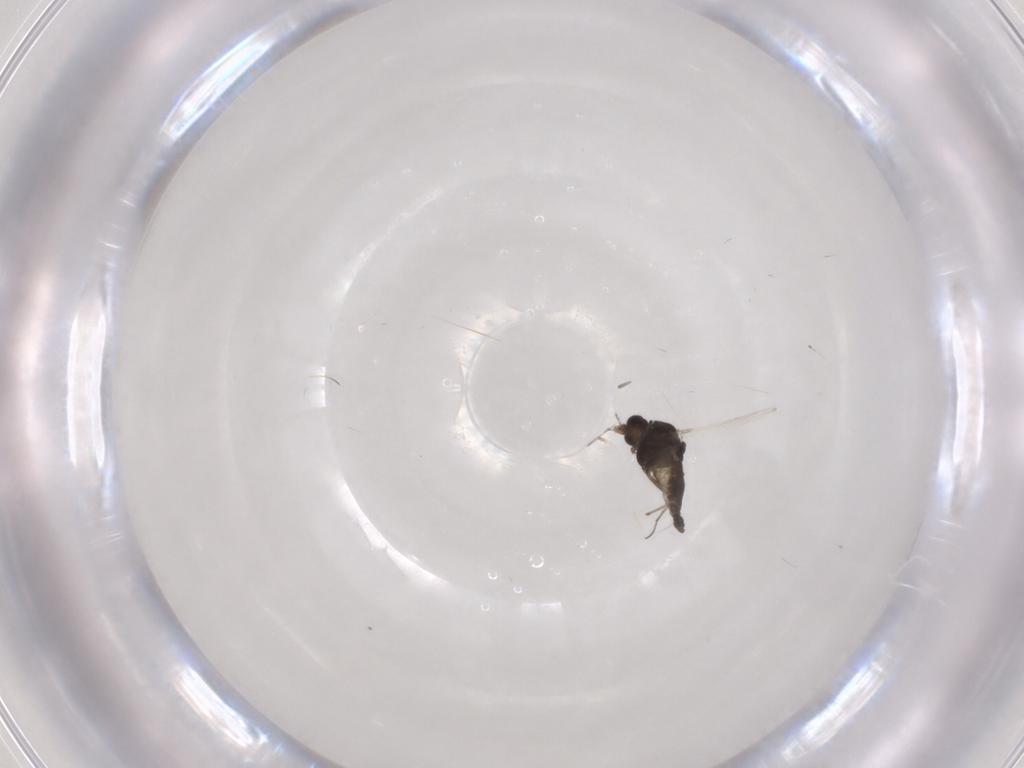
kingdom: Animalia
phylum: Arthropoda
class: Insecta
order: Diptera
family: Chironomidae
